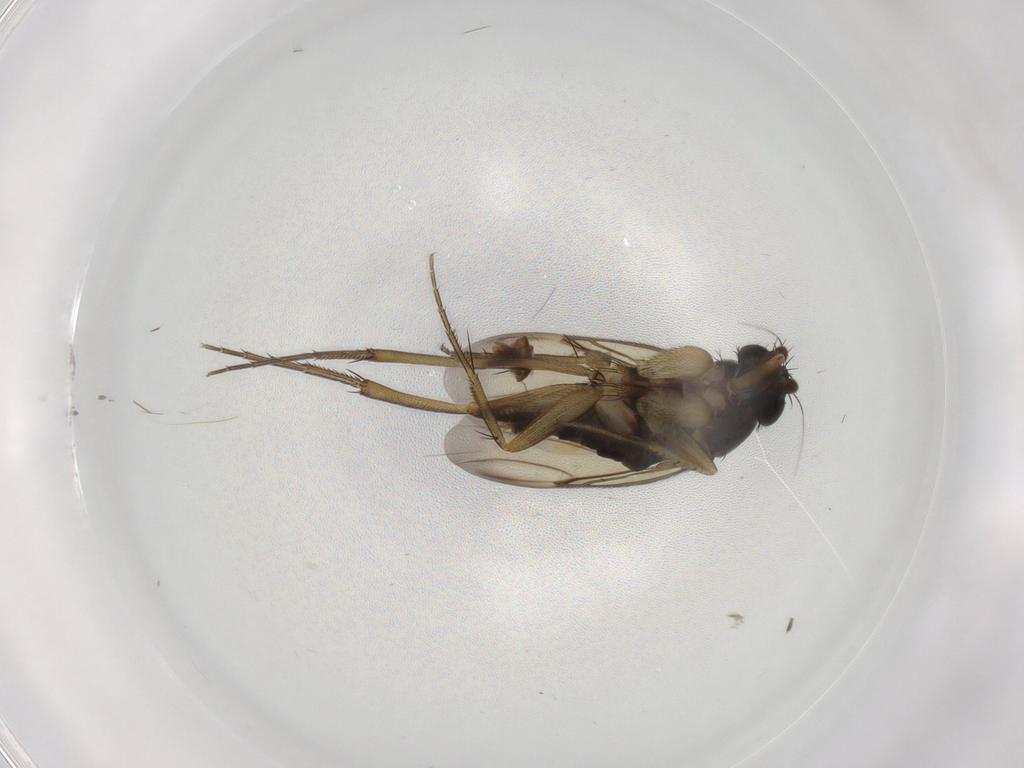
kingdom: Animalia
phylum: Arthropoda
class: Insecta
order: Diptera
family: Phoridae
